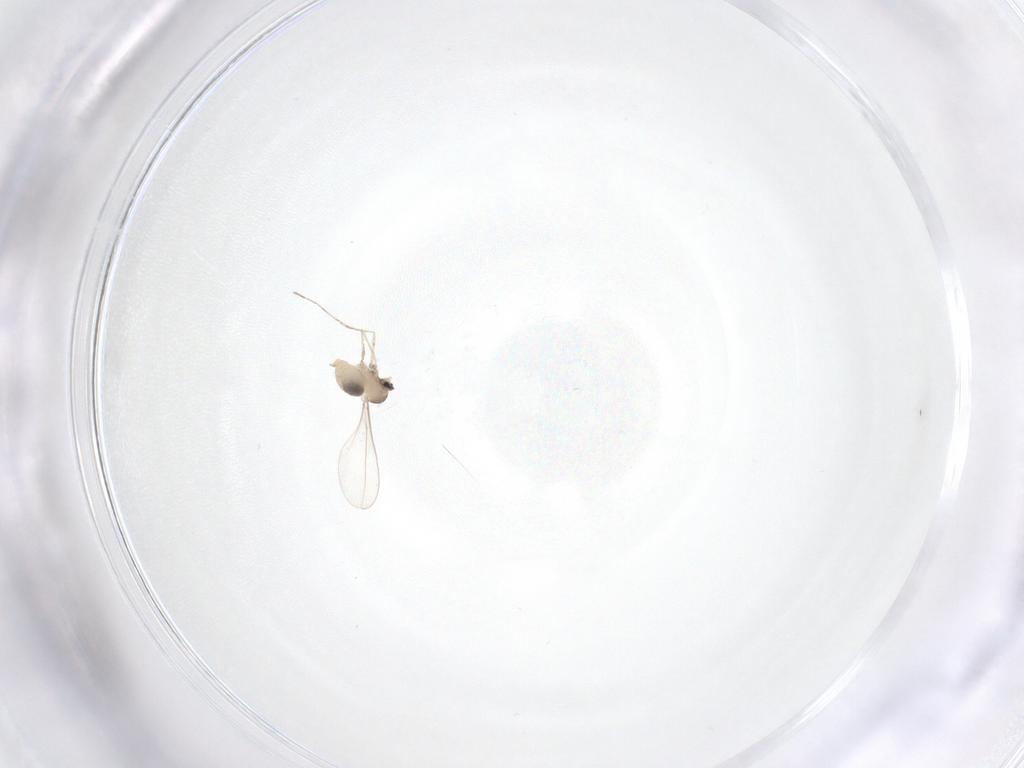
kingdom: Animalia
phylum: Arthropoda
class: Insecta
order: Diptera
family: Cecidomyiidae
